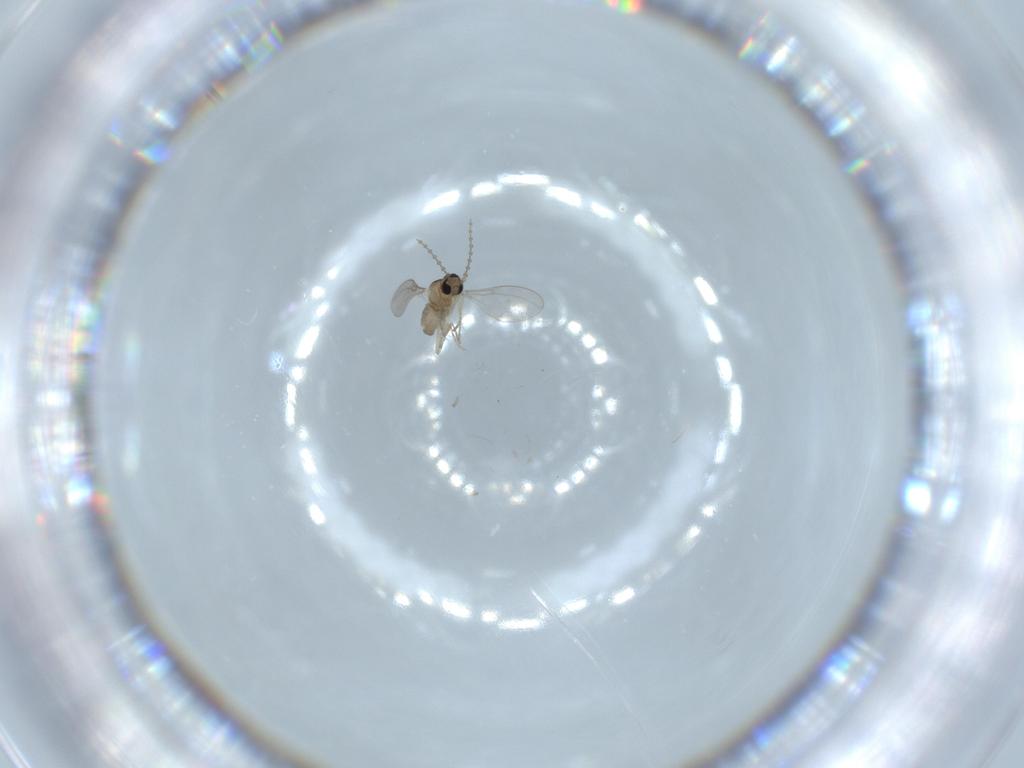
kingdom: Animalia
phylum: Arthropoda
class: Insecta
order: Diptera
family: Cecidomyiidae
